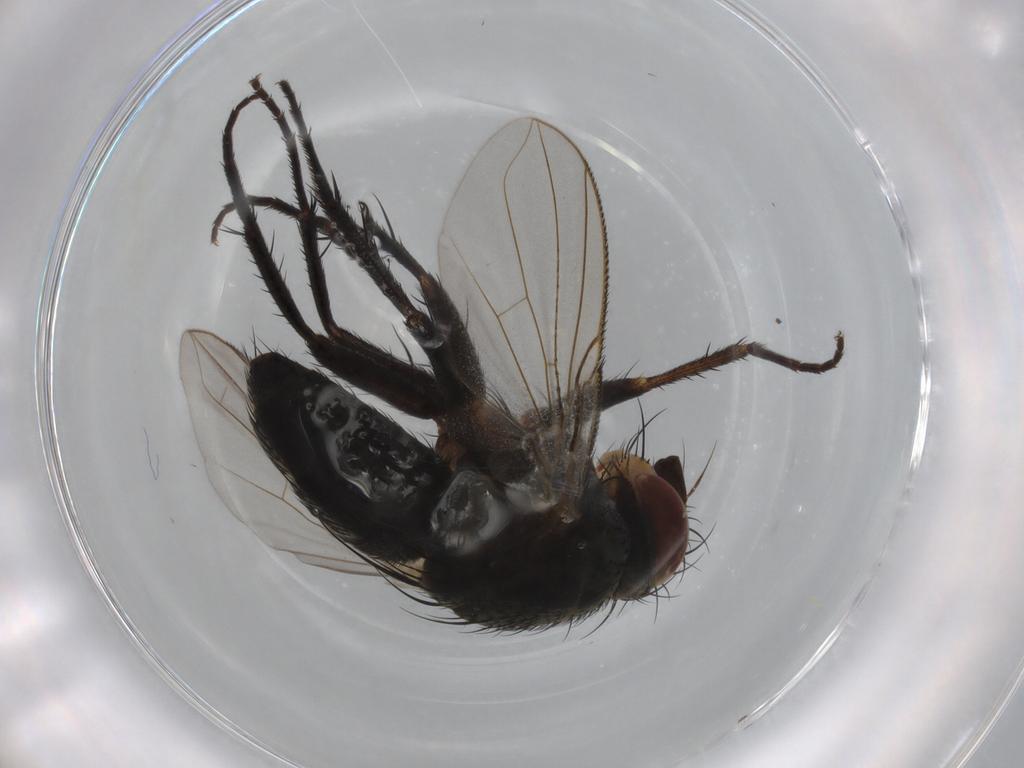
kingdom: Animalia
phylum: Arthropoda
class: Insecta
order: Diptera
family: Tachinidae
